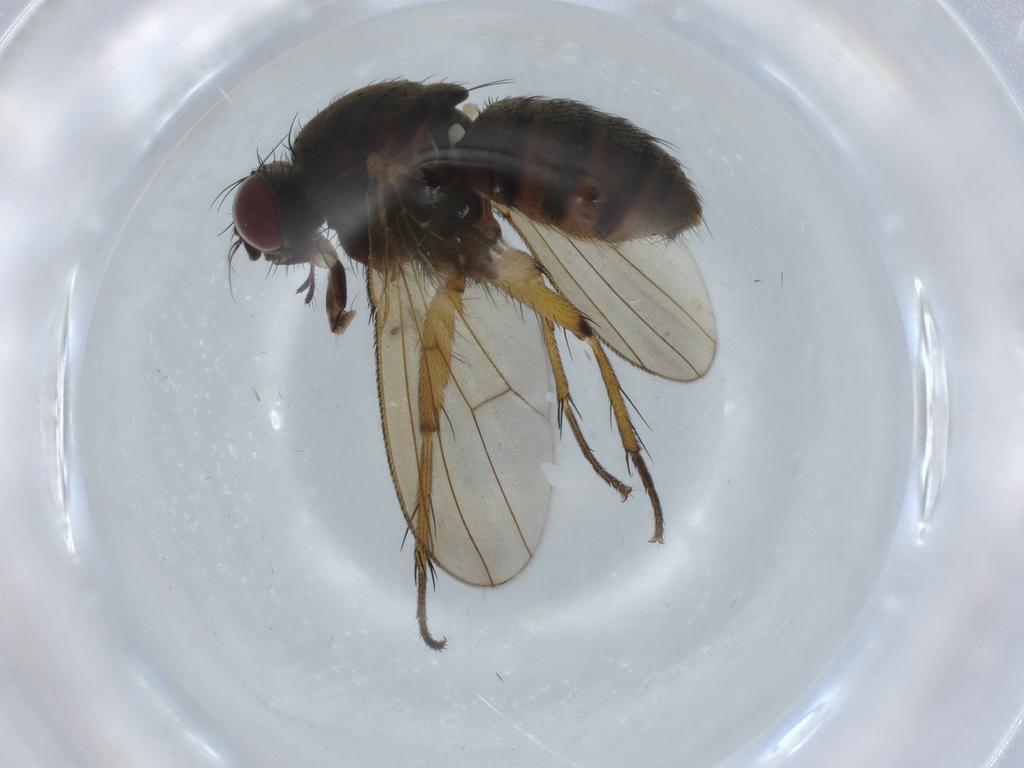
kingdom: Animalia
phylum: Arthropoda
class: Insecta
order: Diptera
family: Muscidae
